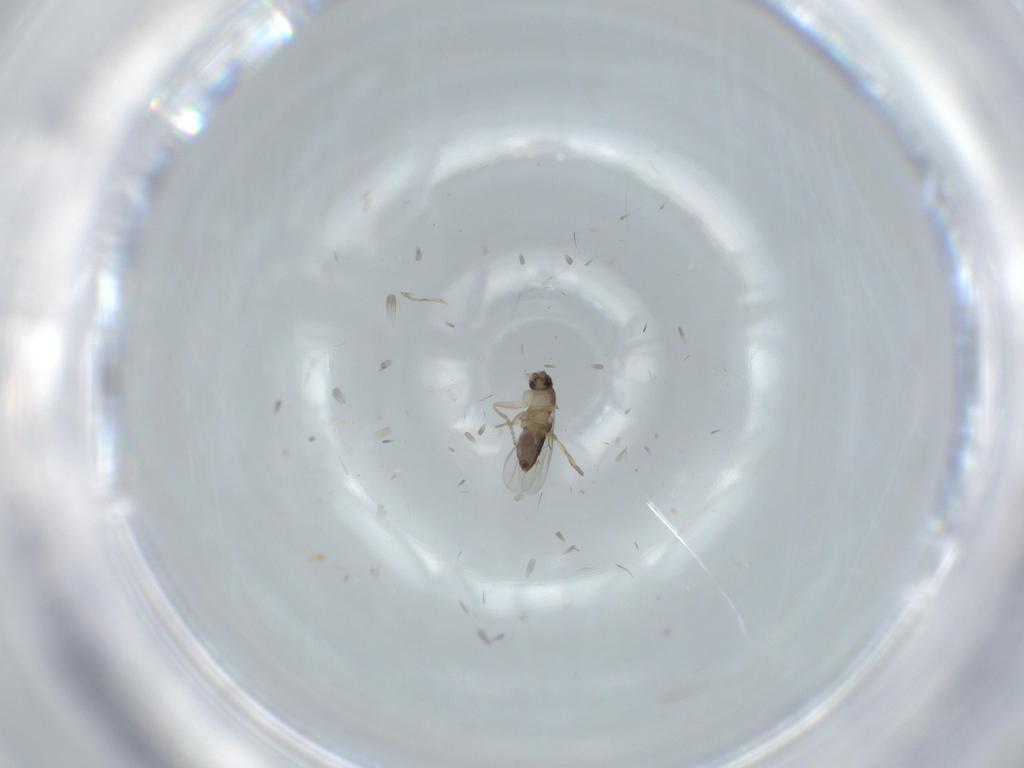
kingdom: Animalia
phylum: Arthropoda
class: Insecta
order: Diptera
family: Phoridae
